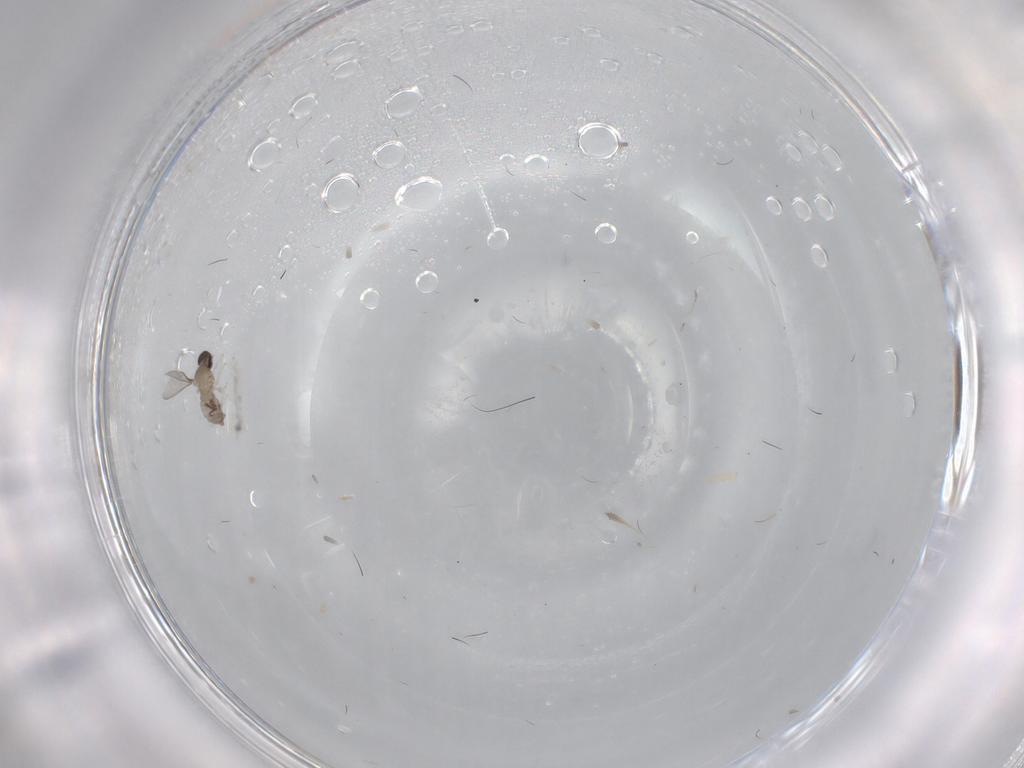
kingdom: Animalia
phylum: Arthropoda
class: Insecta
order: Diptera
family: Cecidomyiidae
